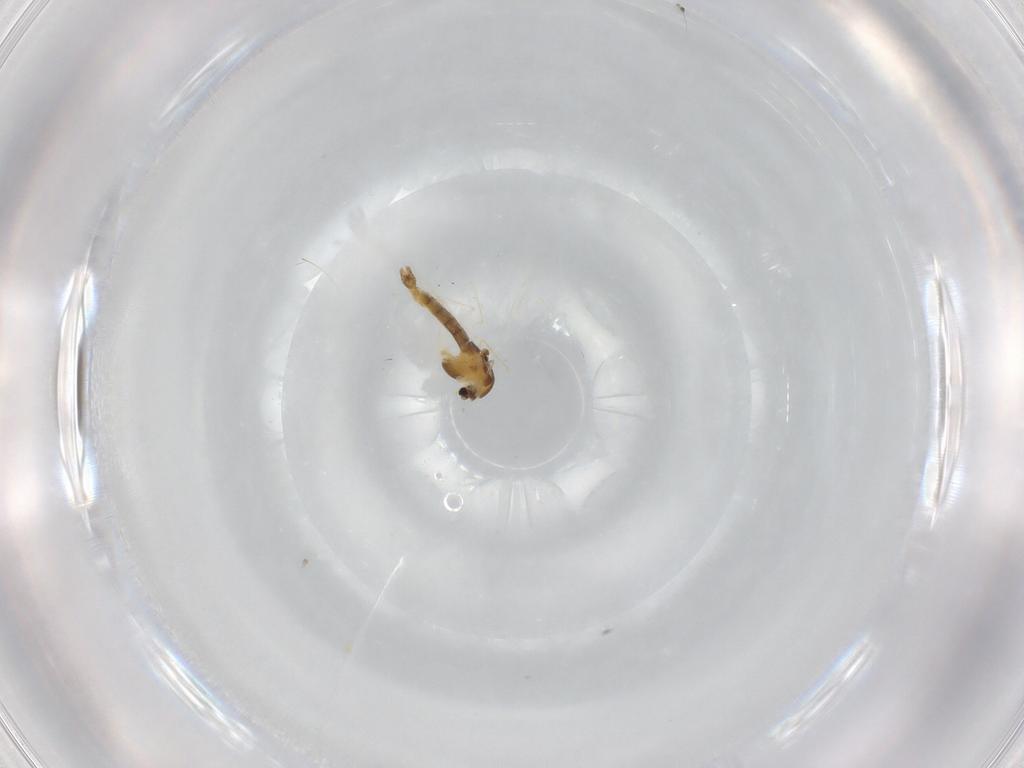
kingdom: Animalia
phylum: Arthropoda
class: Insecta
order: Diptera
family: Chironomidae
